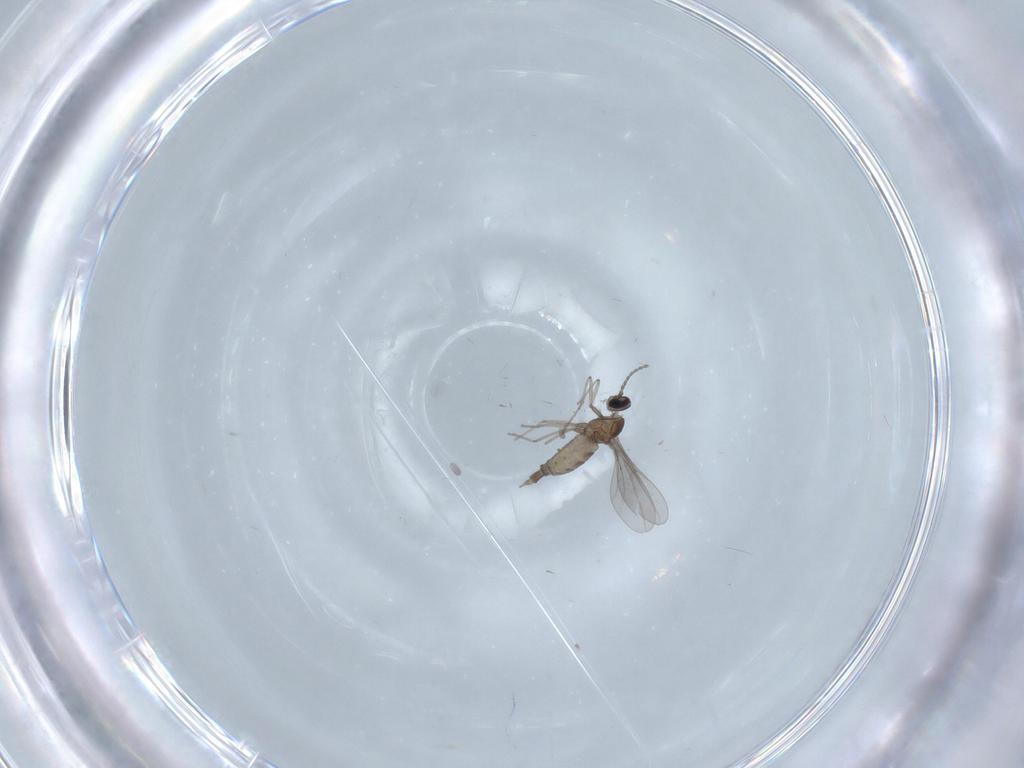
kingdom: Animalia
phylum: Arthropoda
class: Insecta
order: Diptera
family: Cecidomyiidae
